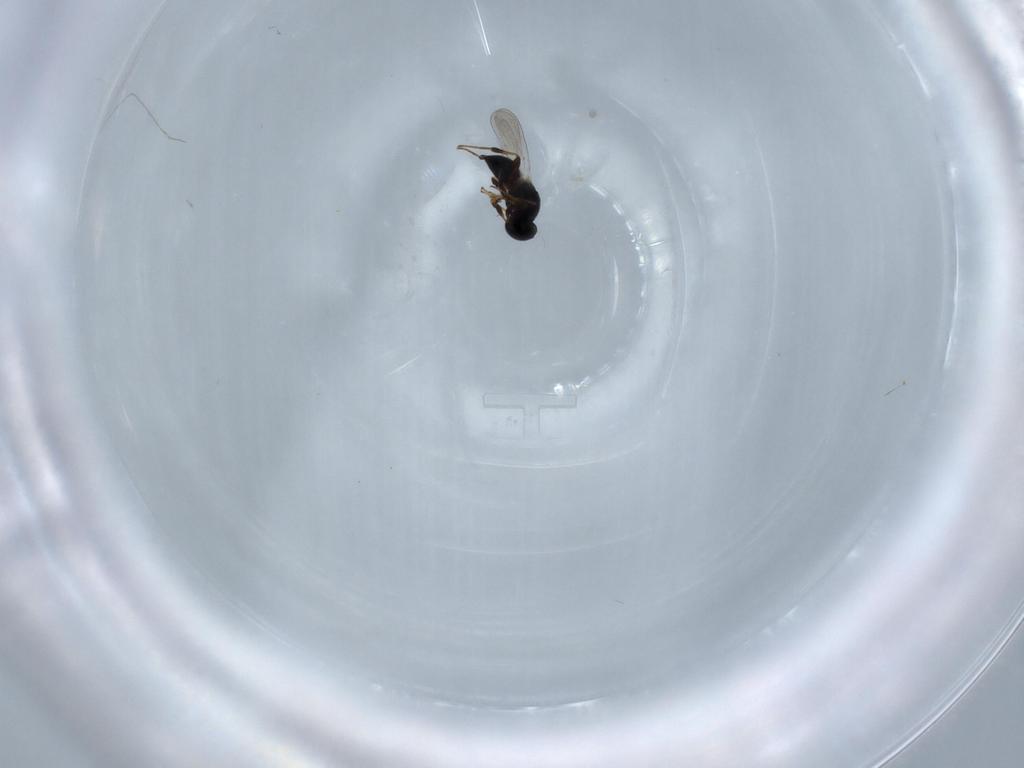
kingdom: Animalia
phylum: Arthropoda
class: Insecta
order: Hymenoptera
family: Platygastridae
